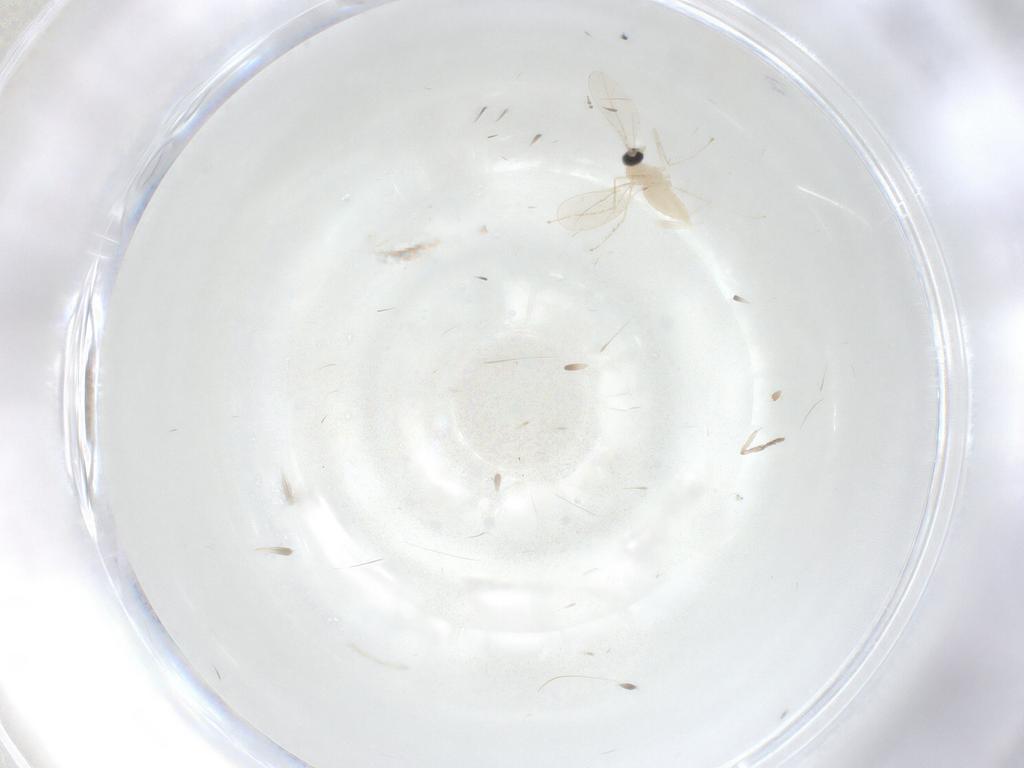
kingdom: Animalia
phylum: Arthropoda
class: Insecta
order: Diptera
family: Cecidomyiidae
